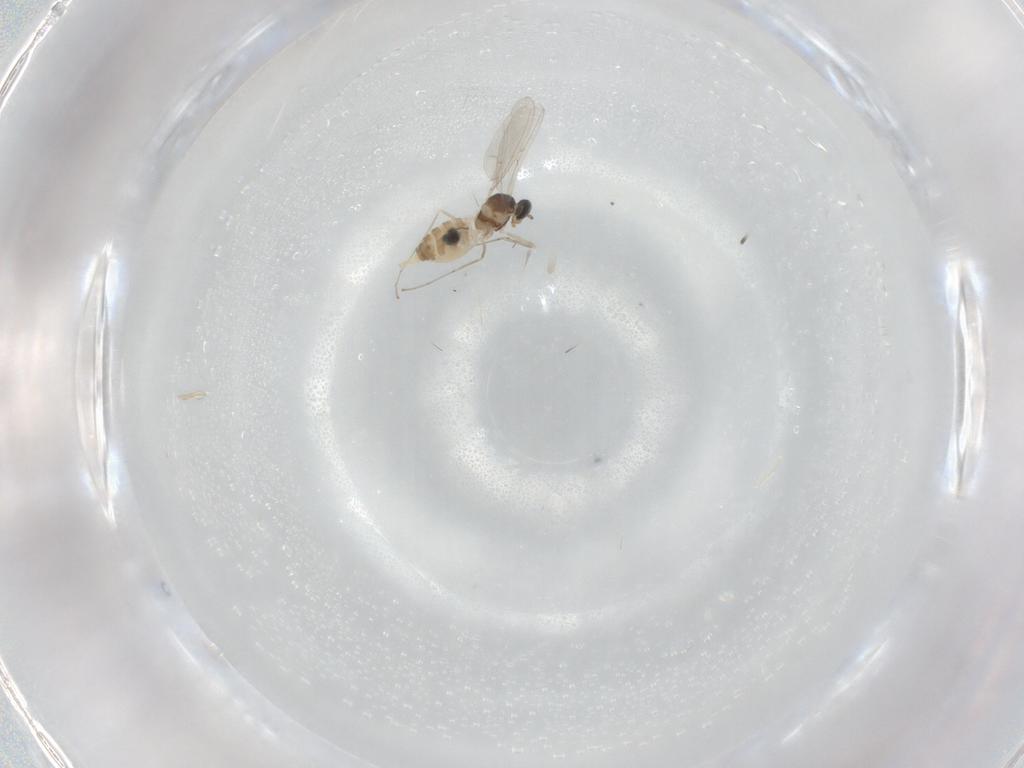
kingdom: Animalia
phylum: Arthropoda
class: Insecta
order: Diptera
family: Cecidomyiidae
